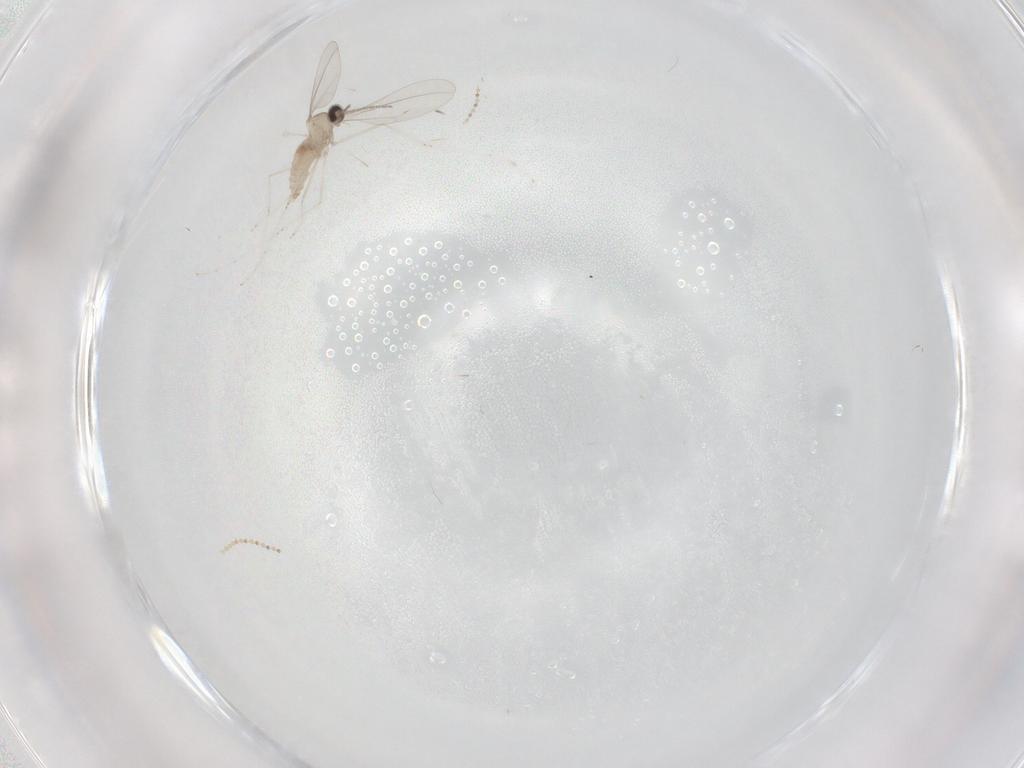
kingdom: Animalia
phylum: Arthropoda
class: Insecta
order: Diptera
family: Cecidomyiidae
